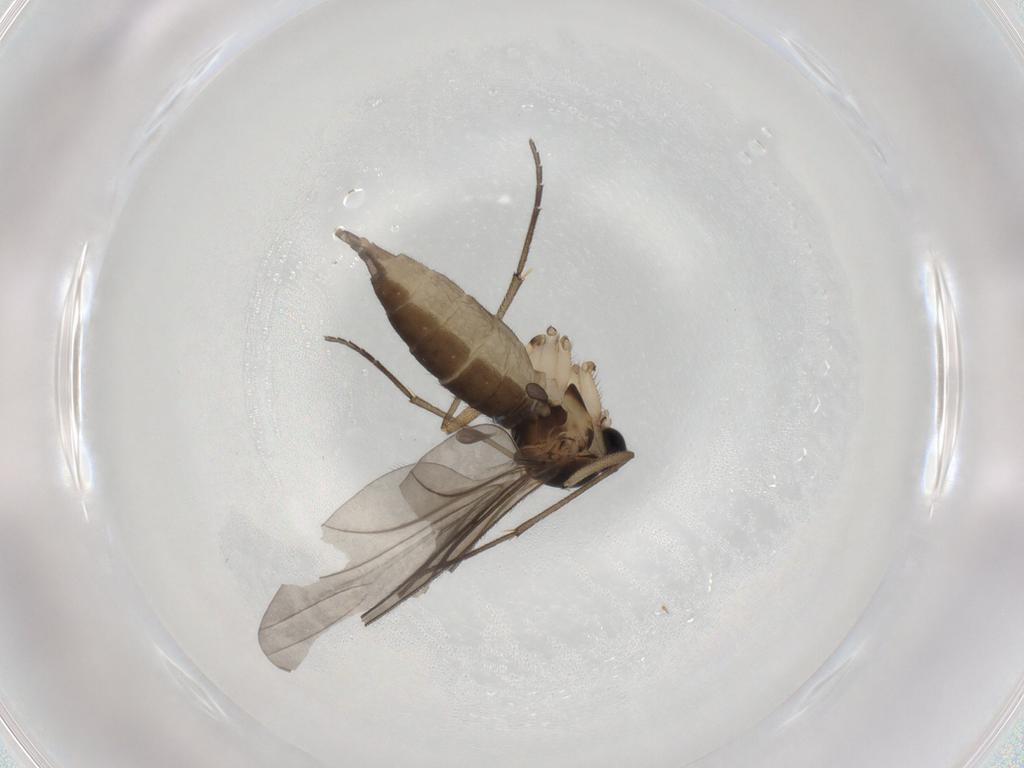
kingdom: Animalia
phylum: Arthropoda
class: Insecta
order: Diptera
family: Sciaridae
